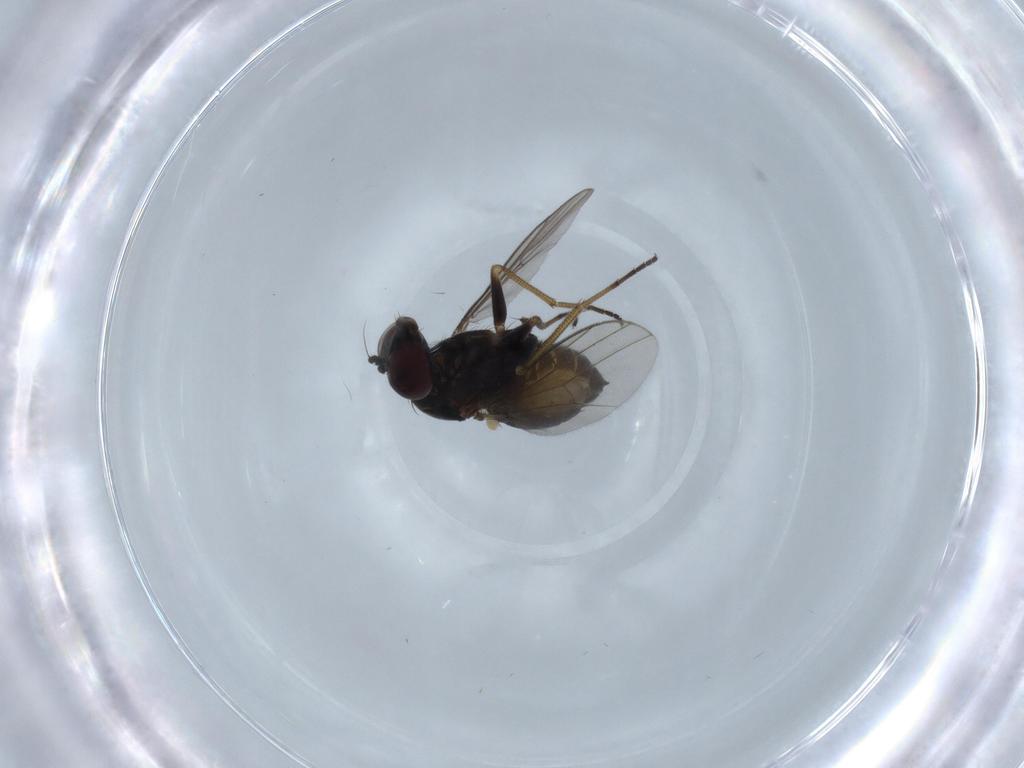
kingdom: Animalia
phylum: Arthropoda
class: Insecta
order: Diptera
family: Dolichopodidae
